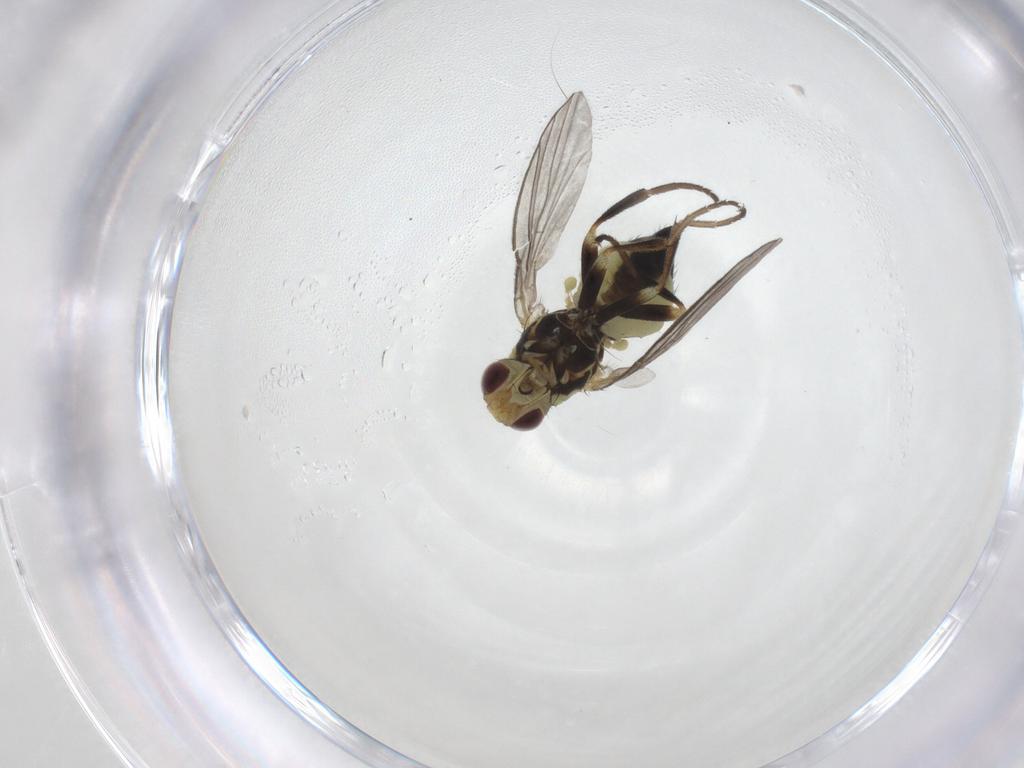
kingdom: Animalia
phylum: Arthropoda
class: Insecta
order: Diptera
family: Agromyzidae
